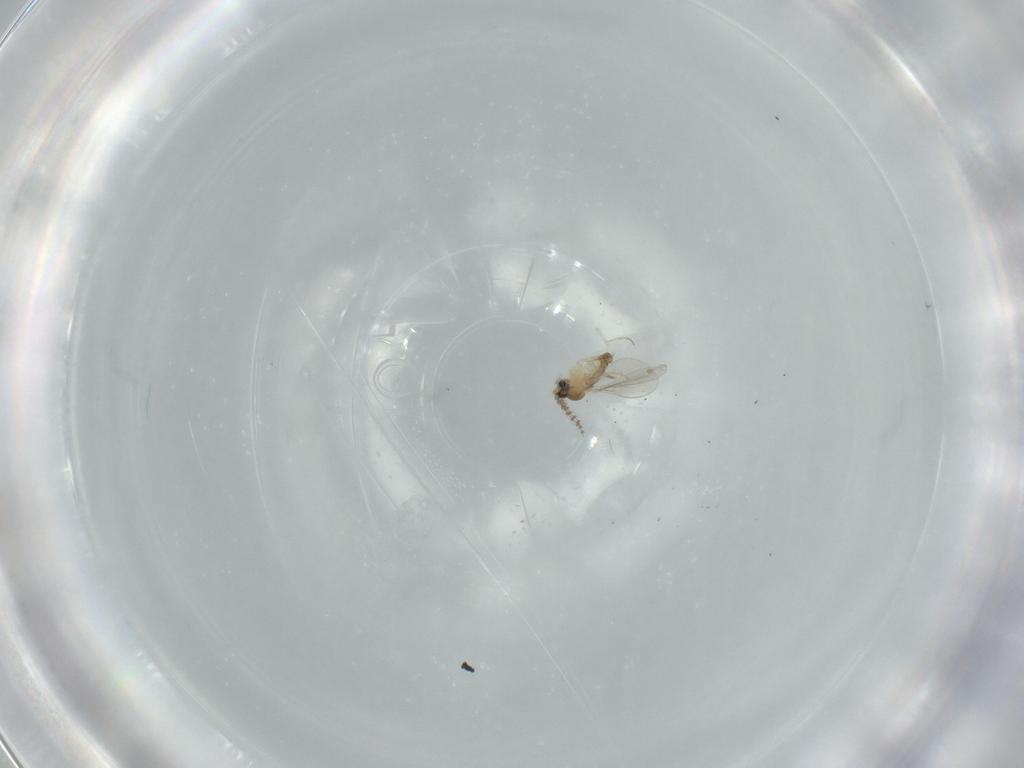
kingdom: Animalia
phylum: Arthropoda
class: Insecta
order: Diptera
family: Cecidomyiidae
